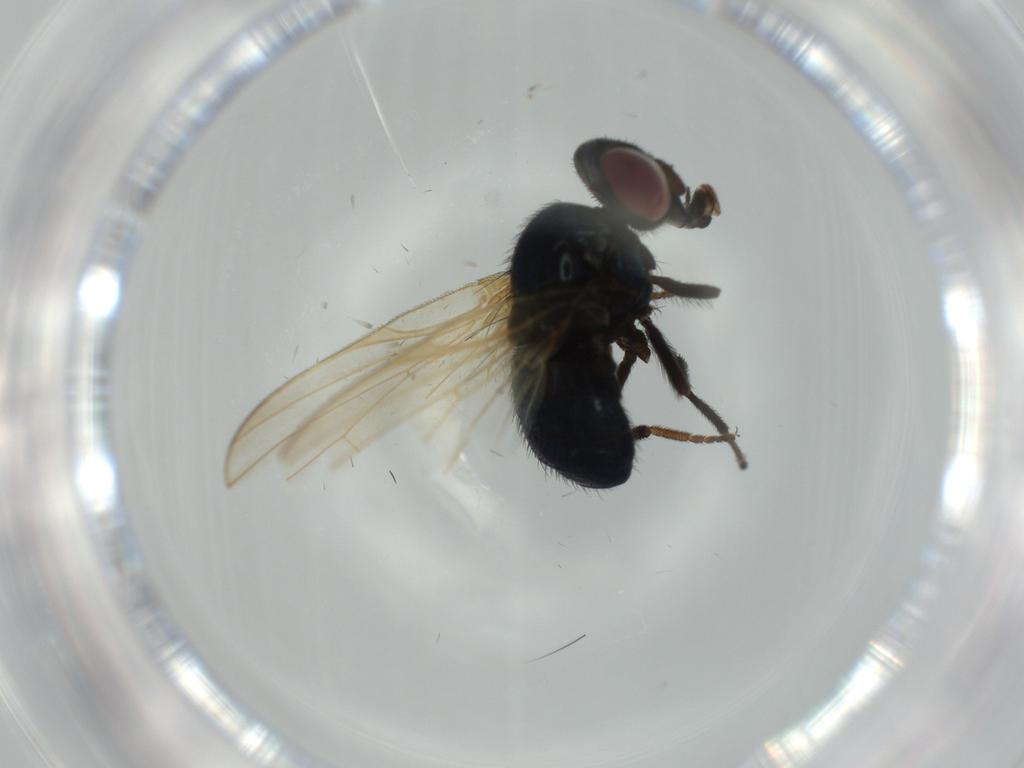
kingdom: Animalia
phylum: Arthropoda
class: Insecta
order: Diptera
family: Syrphidae
